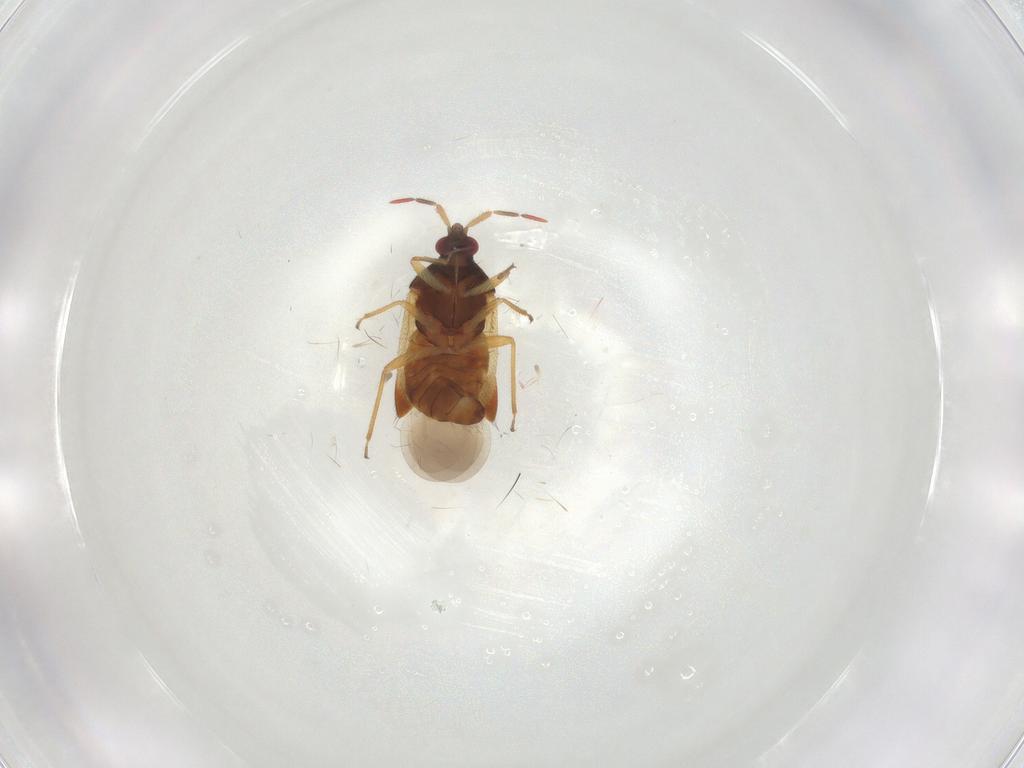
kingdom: Animalia
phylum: Arthropoda
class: Insecta
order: Hemiptera
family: Anthocoridae
